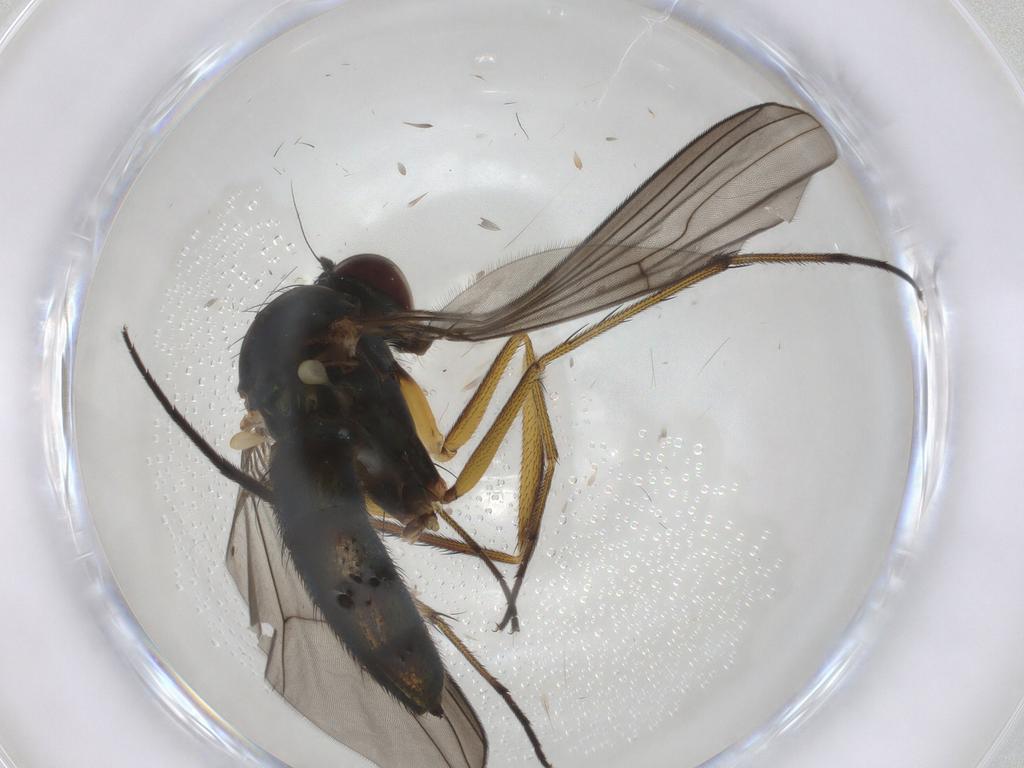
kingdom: Animalia
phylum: Arthropoda
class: Insecta
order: Diptera
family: Dolichopodidae
